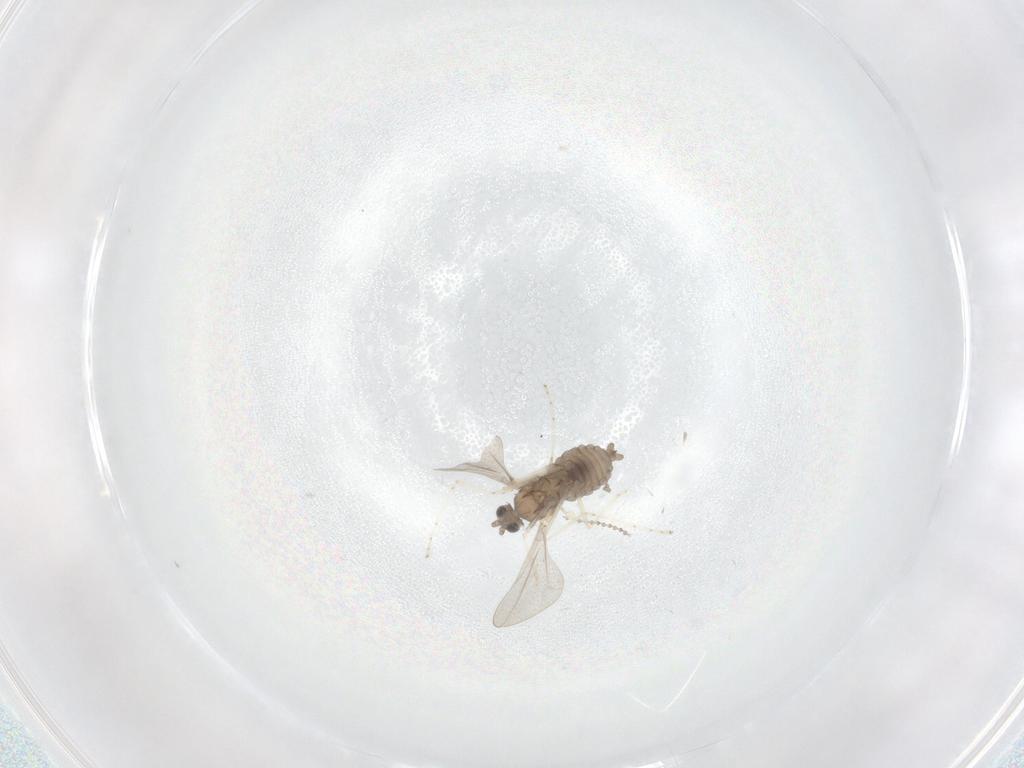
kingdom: Animalia
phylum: Arthropoda
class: Insecta
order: Diptera
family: Cecidomyiidae
